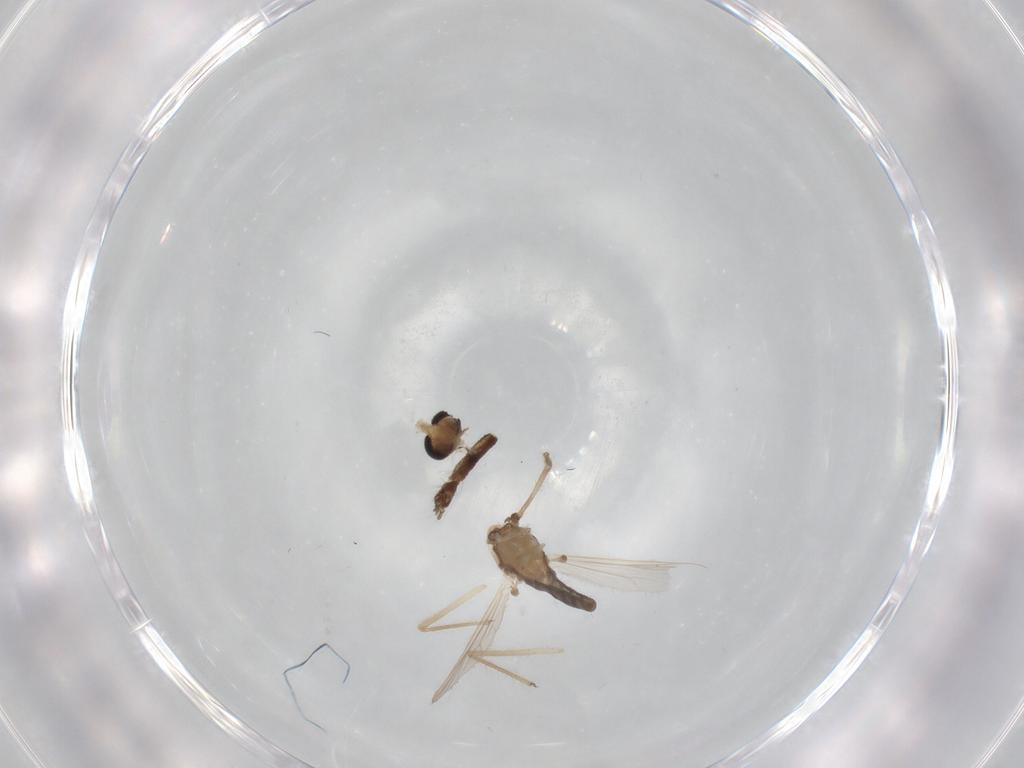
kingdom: Animalia
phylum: Arthropoda
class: Insecta
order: Diptera
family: Chironomidae
